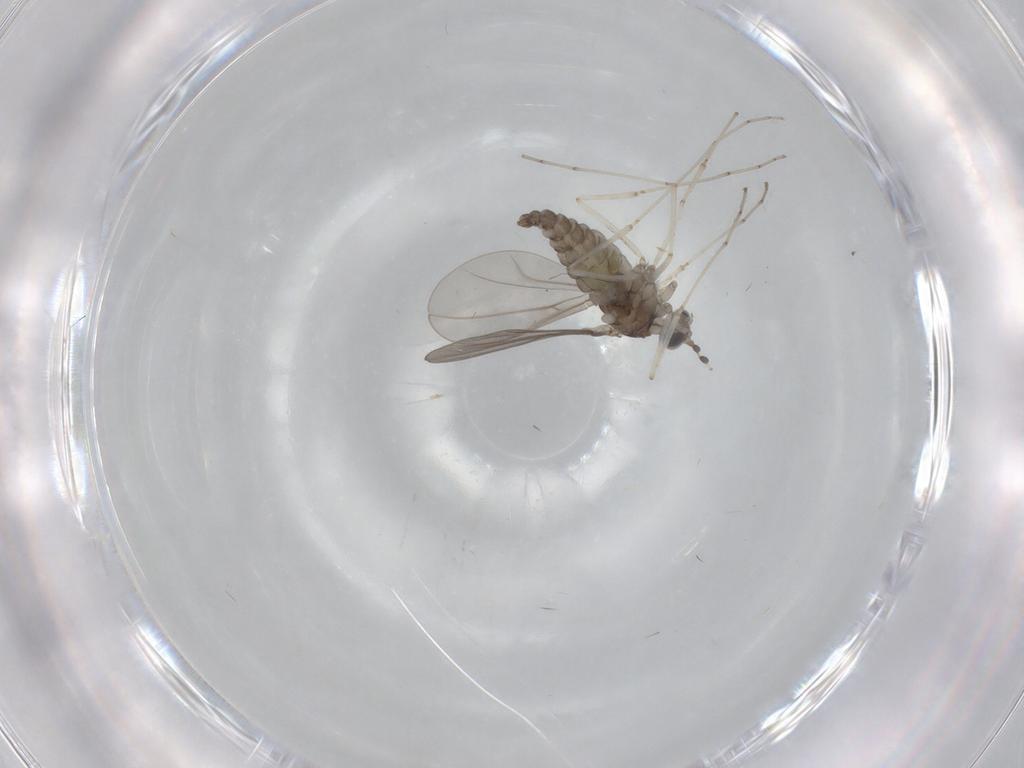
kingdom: Animalia
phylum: Arthropoda
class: Insecta
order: Diptera
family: Cecidomyiidae
